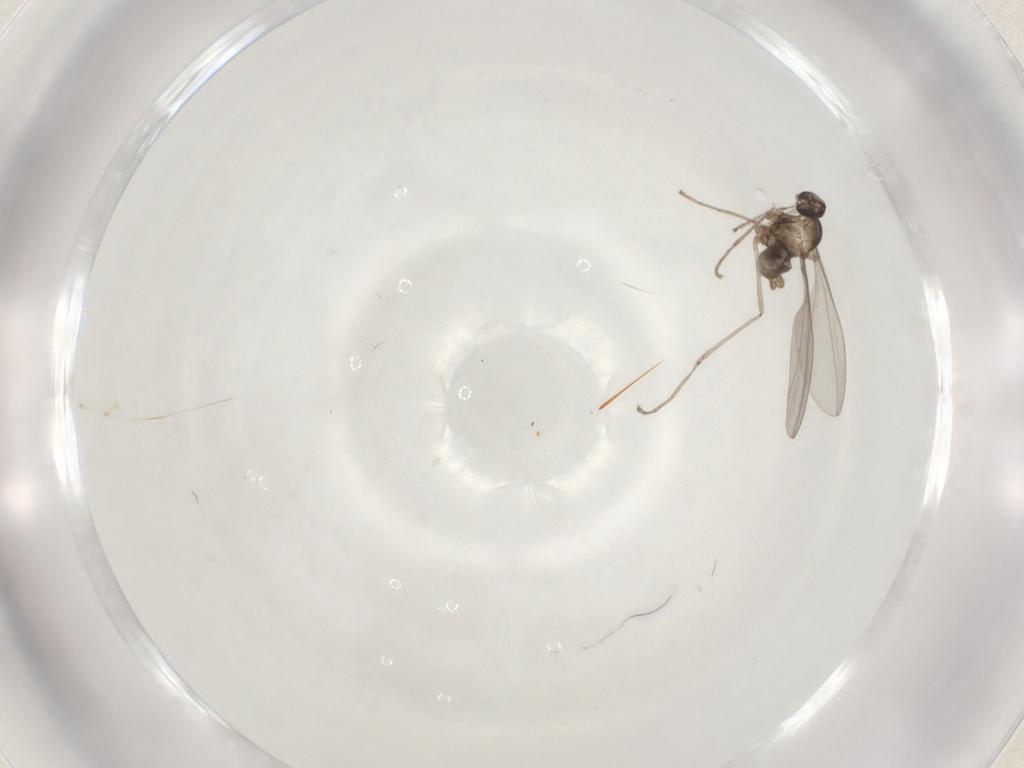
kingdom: Animalia
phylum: Arthropoda
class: Insecta
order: Diptera
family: Cecidomyiidae
